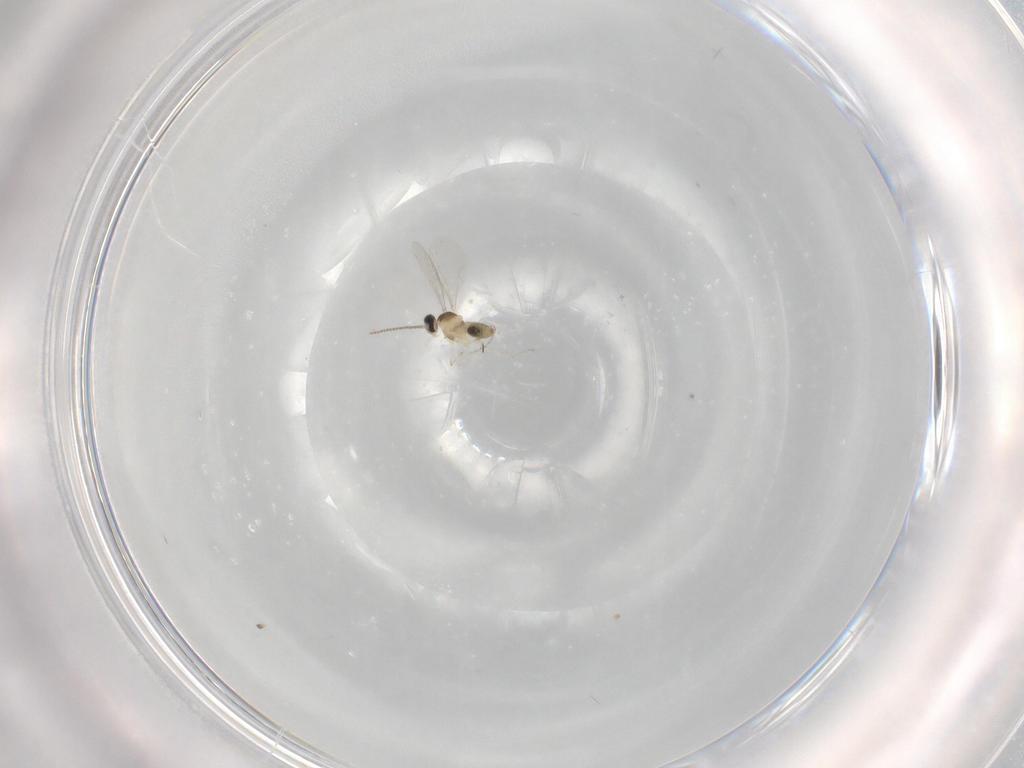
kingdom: Animalia
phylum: Arthropoda
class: Insecta
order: Diptera
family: Cecidomyiidae
